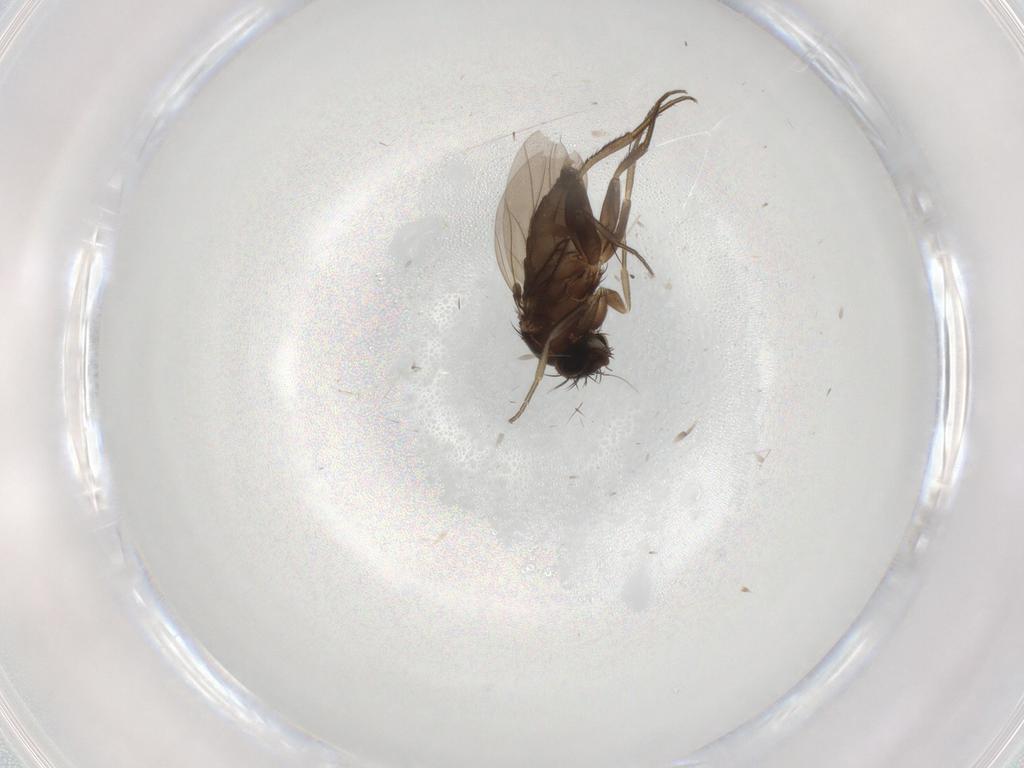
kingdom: Animalia
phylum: Arthropoda
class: Insecta
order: Diptera
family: Phoridae
